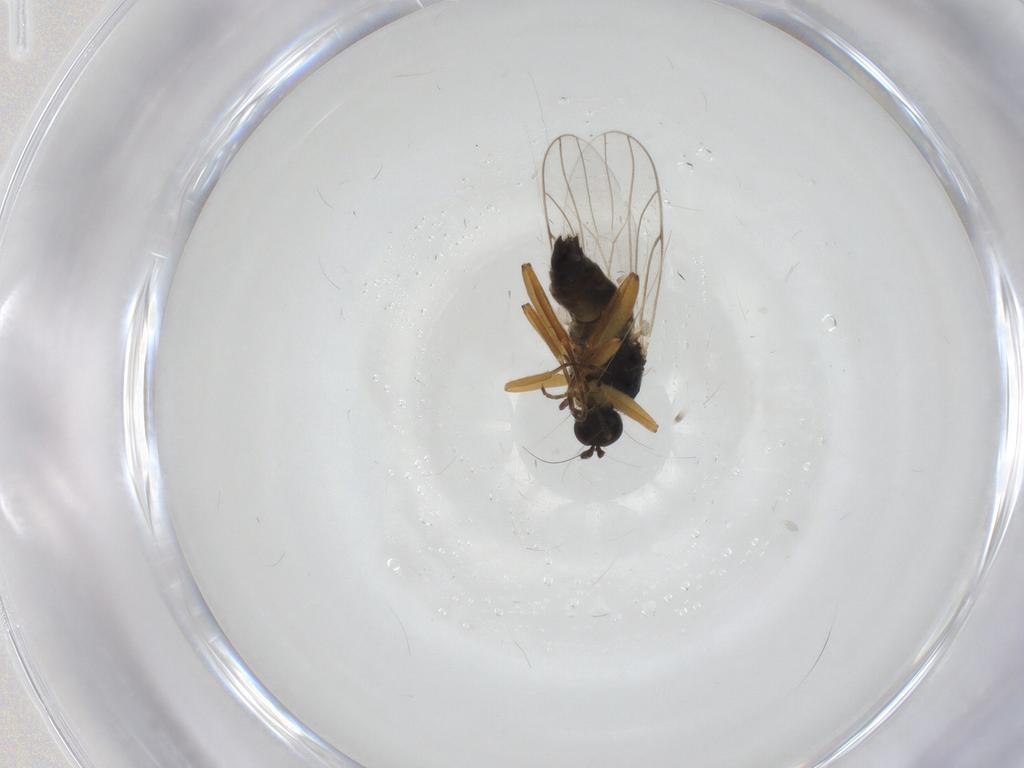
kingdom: Animalia
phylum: Arthropoda
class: Insecta
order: Diptera
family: Hybotidae
